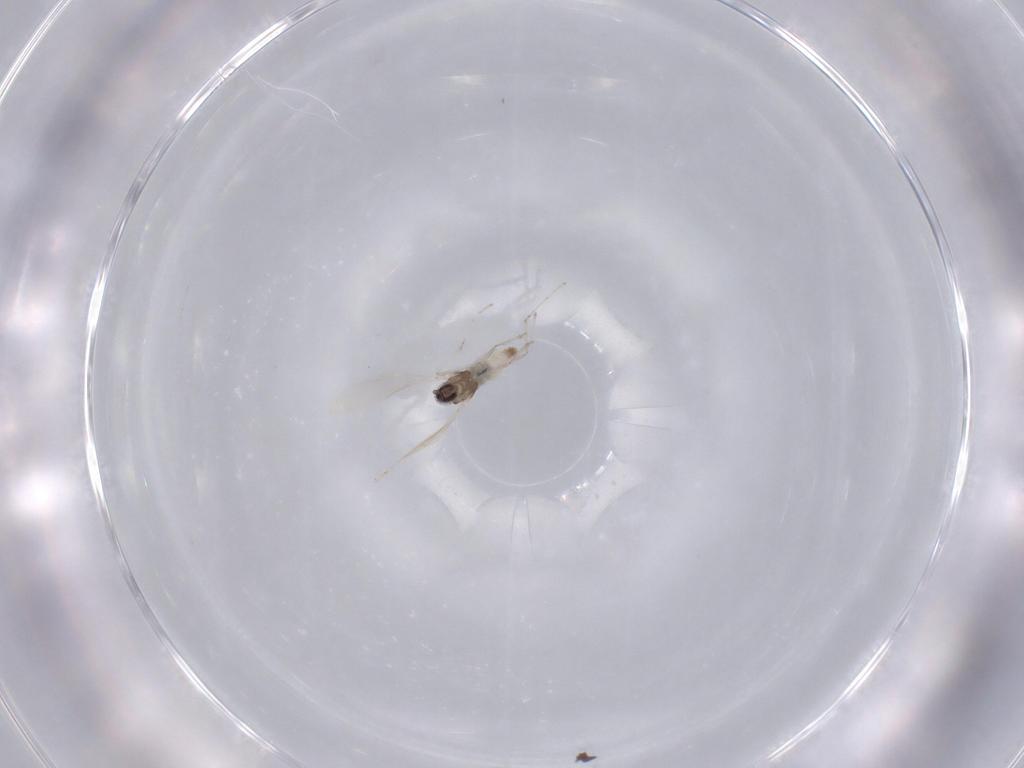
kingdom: Animalia
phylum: Arthropoda
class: Insecta
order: Diptera
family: Cecidomyiidae
